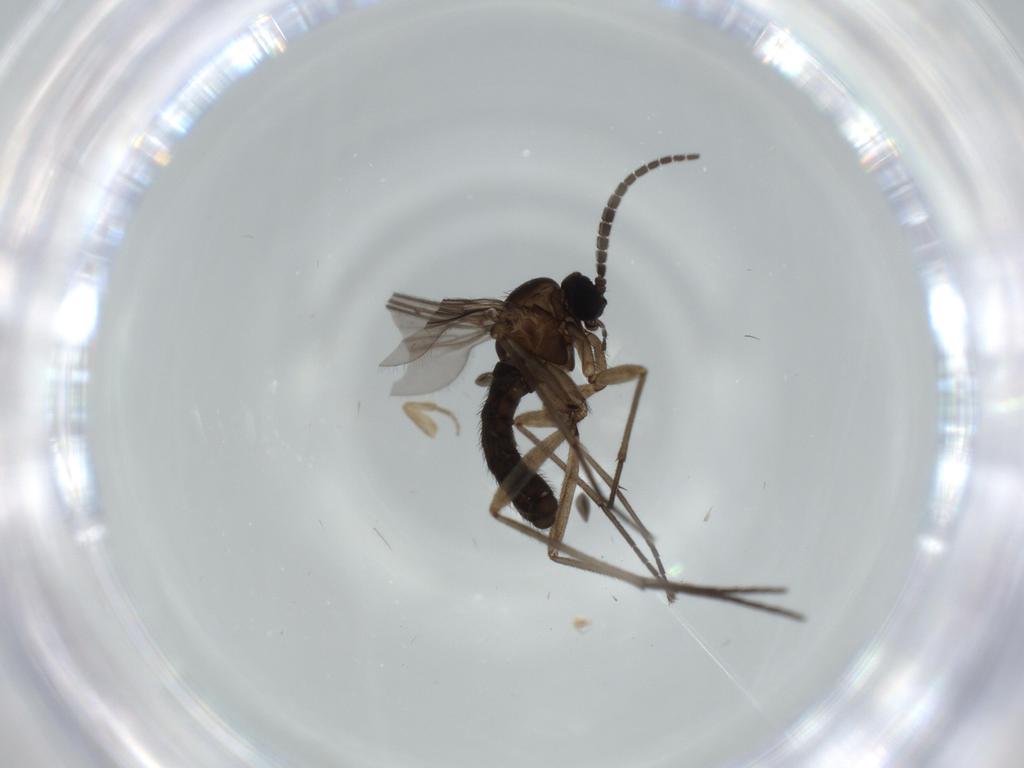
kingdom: Animalia
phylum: Arthropoda
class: Insecta
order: Diptera
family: Sciaridae
